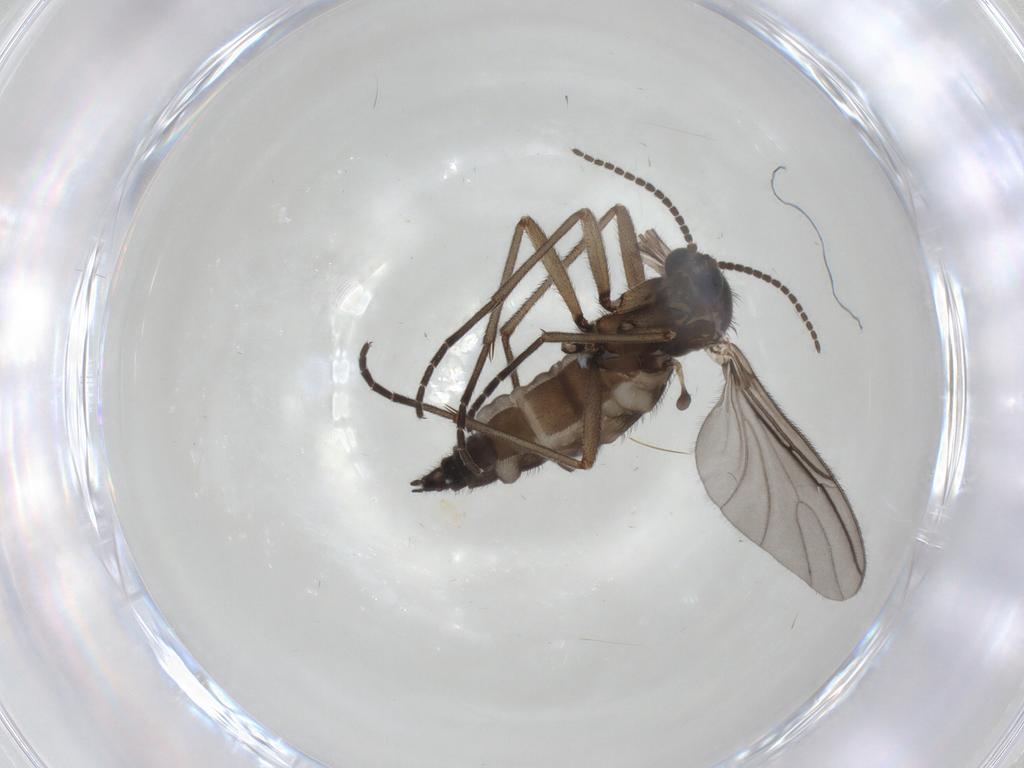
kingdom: Animalia
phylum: Arthropoda
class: Insecta
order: Diptera
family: Sciaridae
